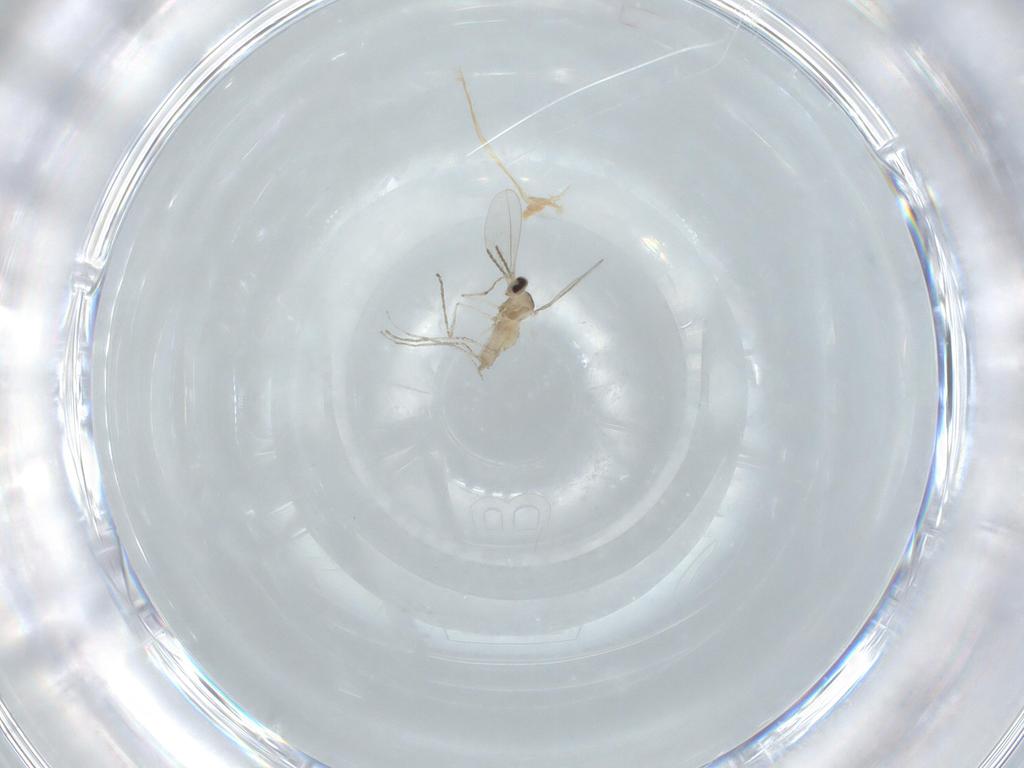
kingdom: Animalia
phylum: Arthropoda
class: Insecta
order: Diptera
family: Cecidomyiidae
